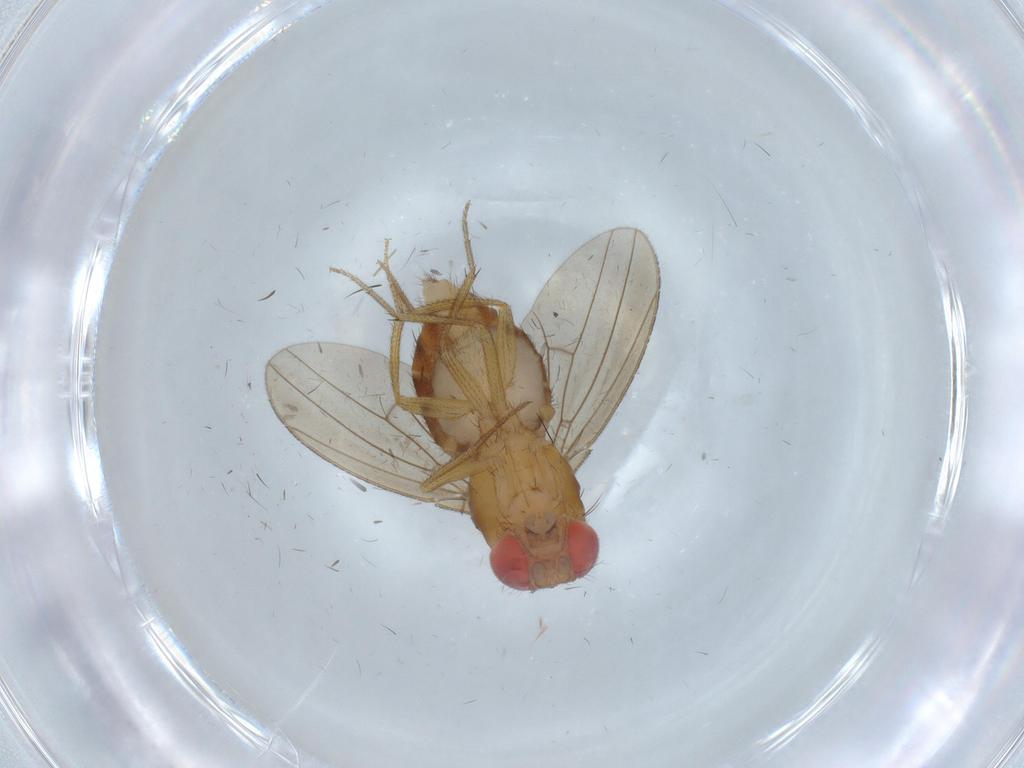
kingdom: Animalia
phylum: Arthropoda
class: Insecta
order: Diptera
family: Drosophilidae
